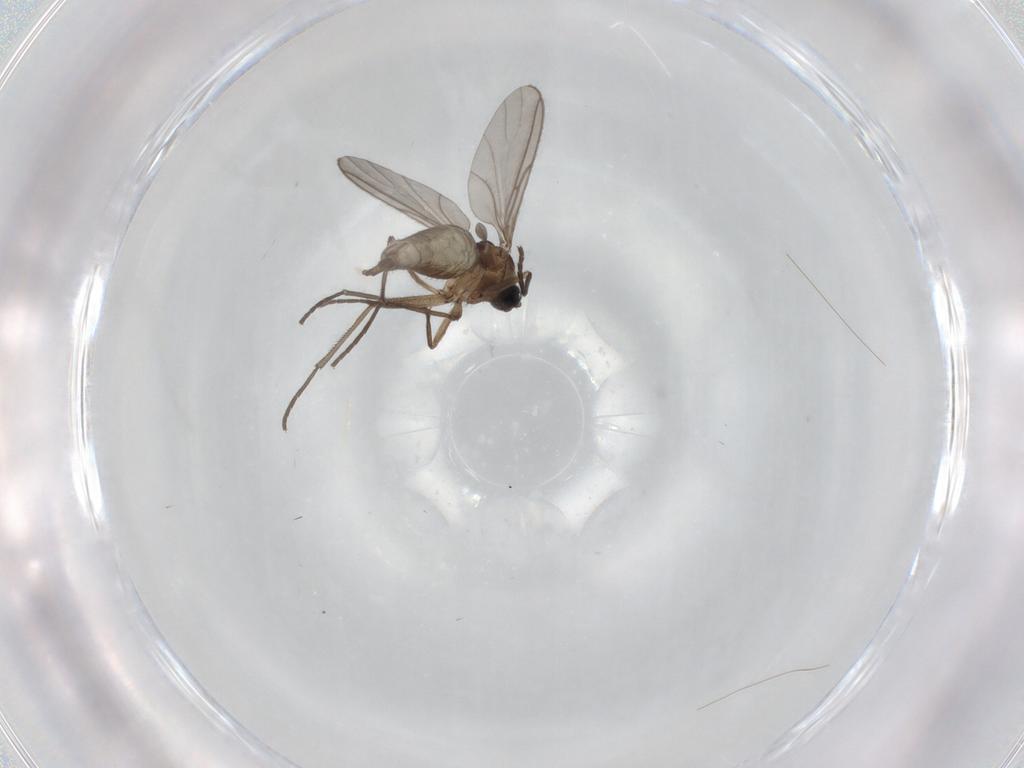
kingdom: Animalia
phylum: Arthropoda
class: Insecta
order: Diptera
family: Sciaridae
